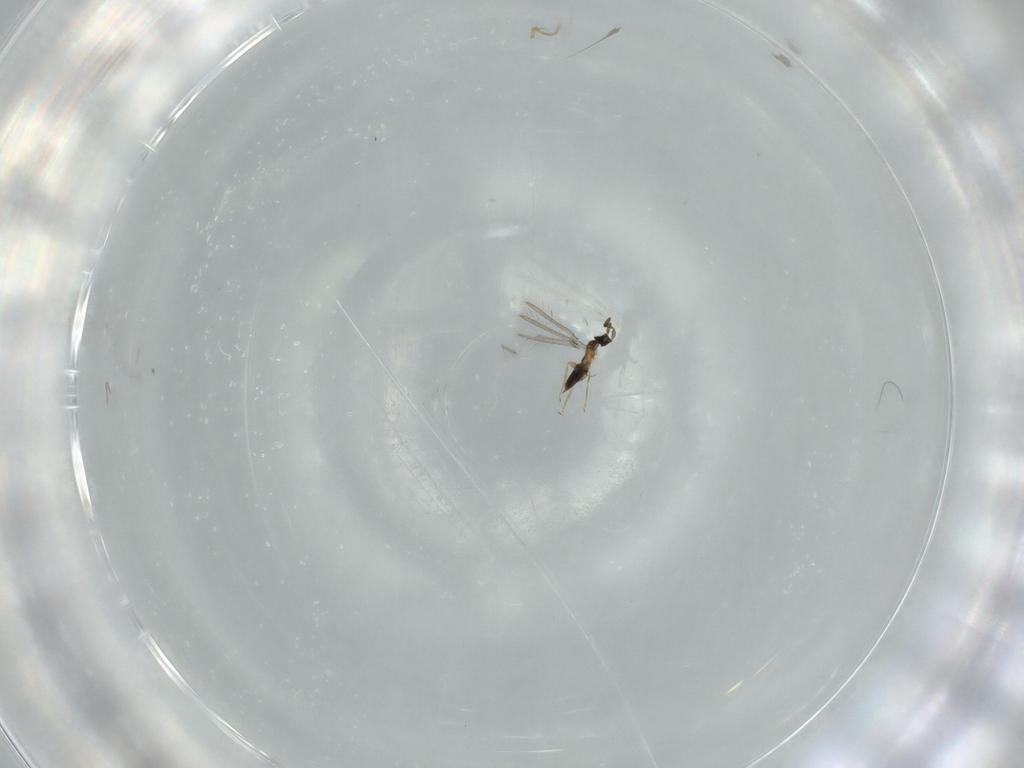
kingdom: Animalia
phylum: Arthropoda
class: Insecta
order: Hymenoptera
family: Mymaridae
